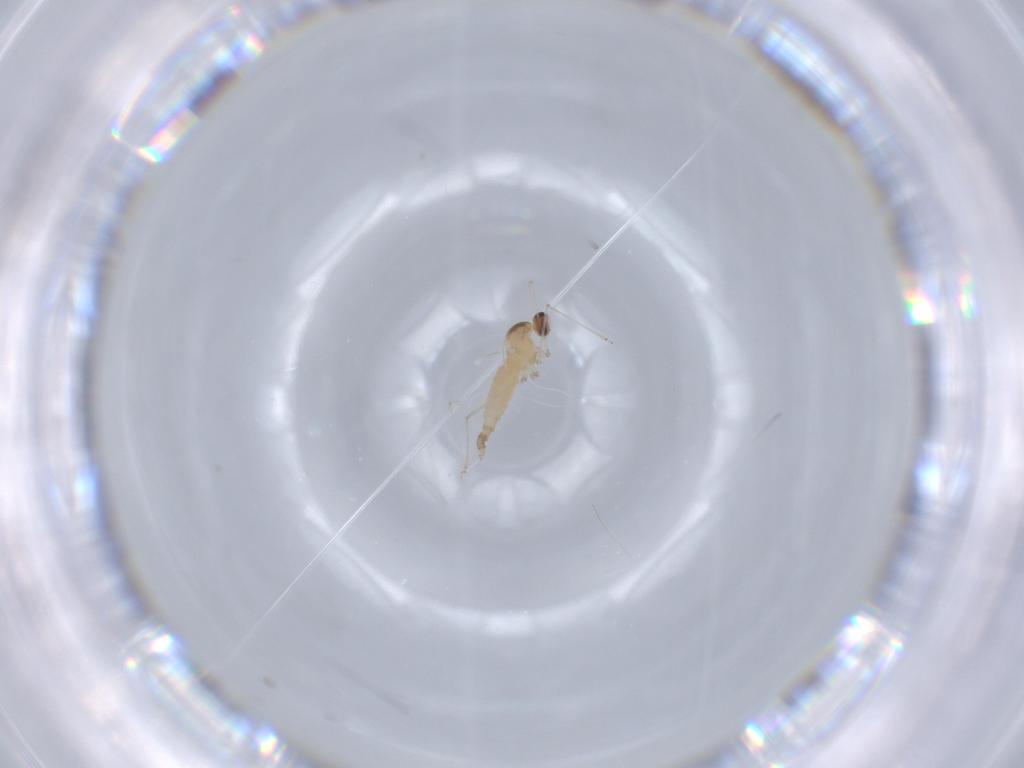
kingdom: Animalia
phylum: Arthropoda
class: Insecta
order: Diptera
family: Cecidomyiidae
